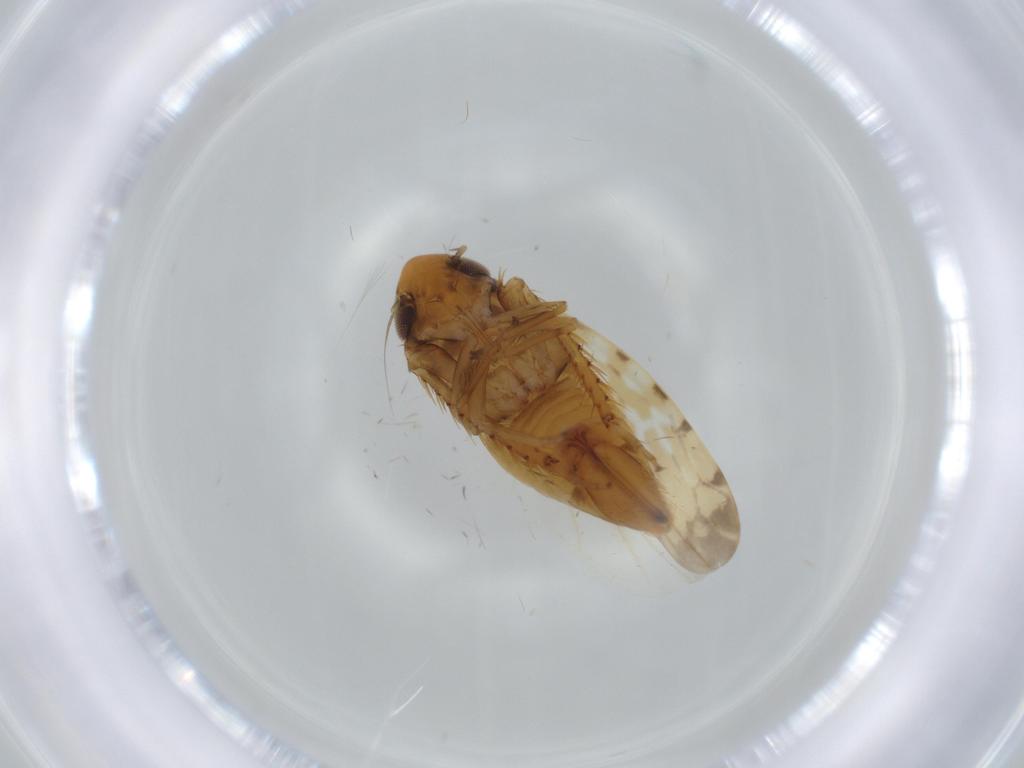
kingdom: Animalia
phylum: Arthropoda
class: Insecta
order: Hemiptera
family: Cicadellidae
